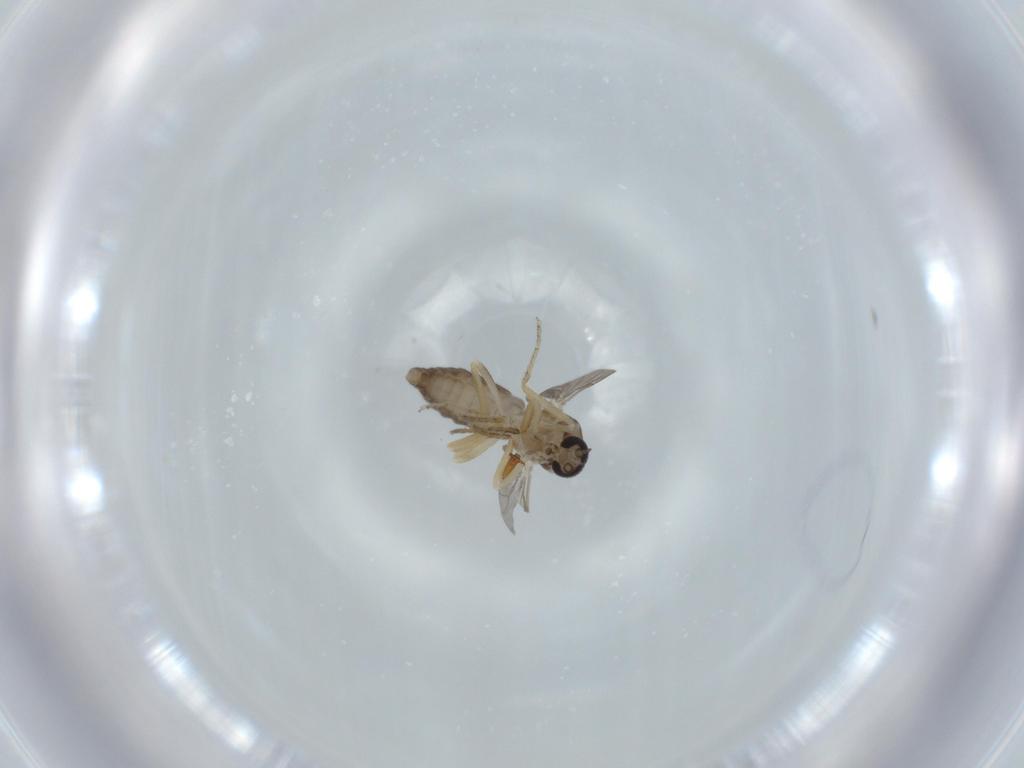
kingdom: Animalia
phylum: Arthropoda
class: Insecta
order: Diptera
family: Ceratopogonidae
